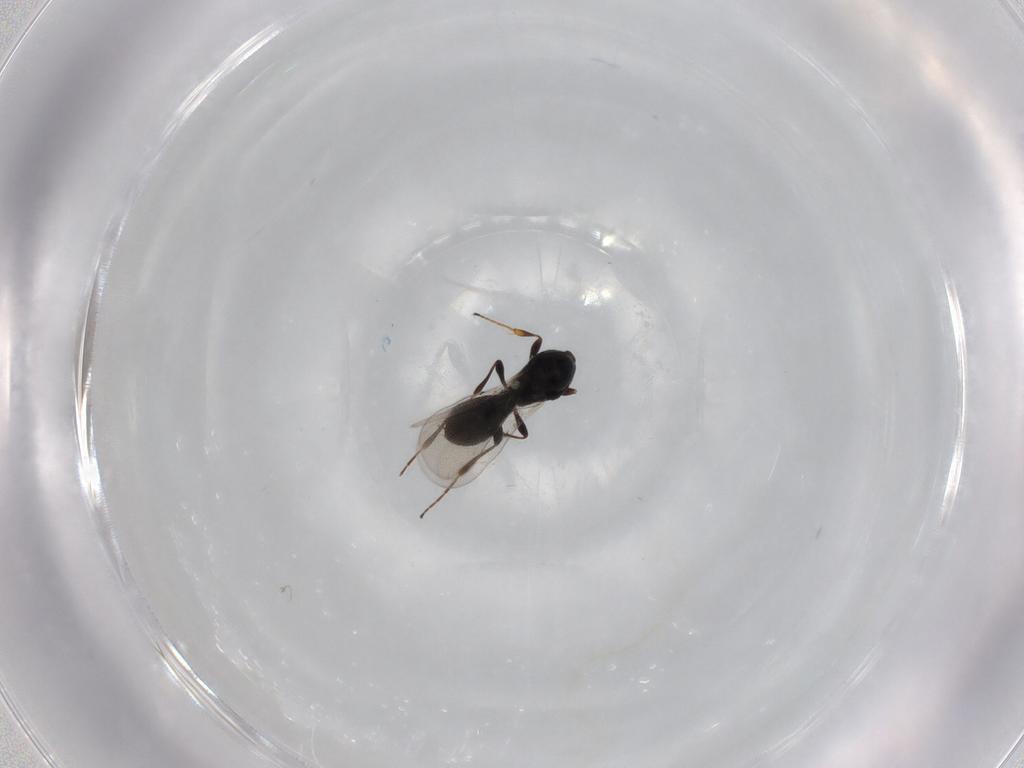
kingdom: Animalia
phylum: Arthropoda
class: Insecta
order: Hymenoptera
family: Platygastridae
